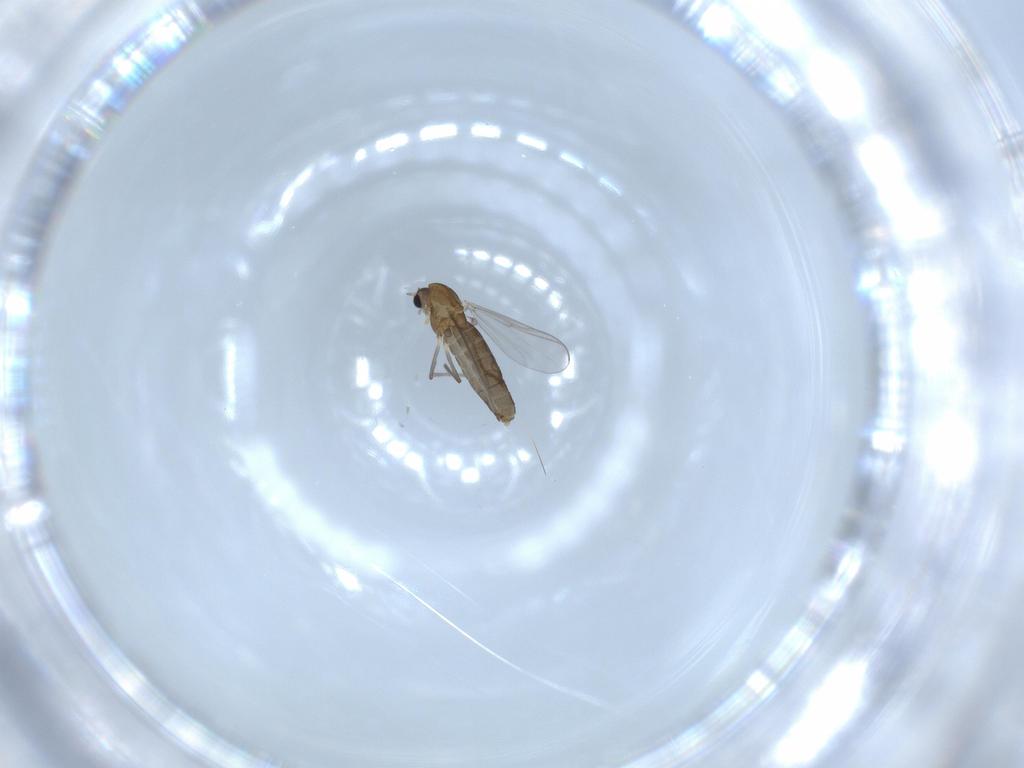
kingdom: Animalia
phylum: Arthropoda
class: Insecta
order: Diptera
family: Chironomidae
